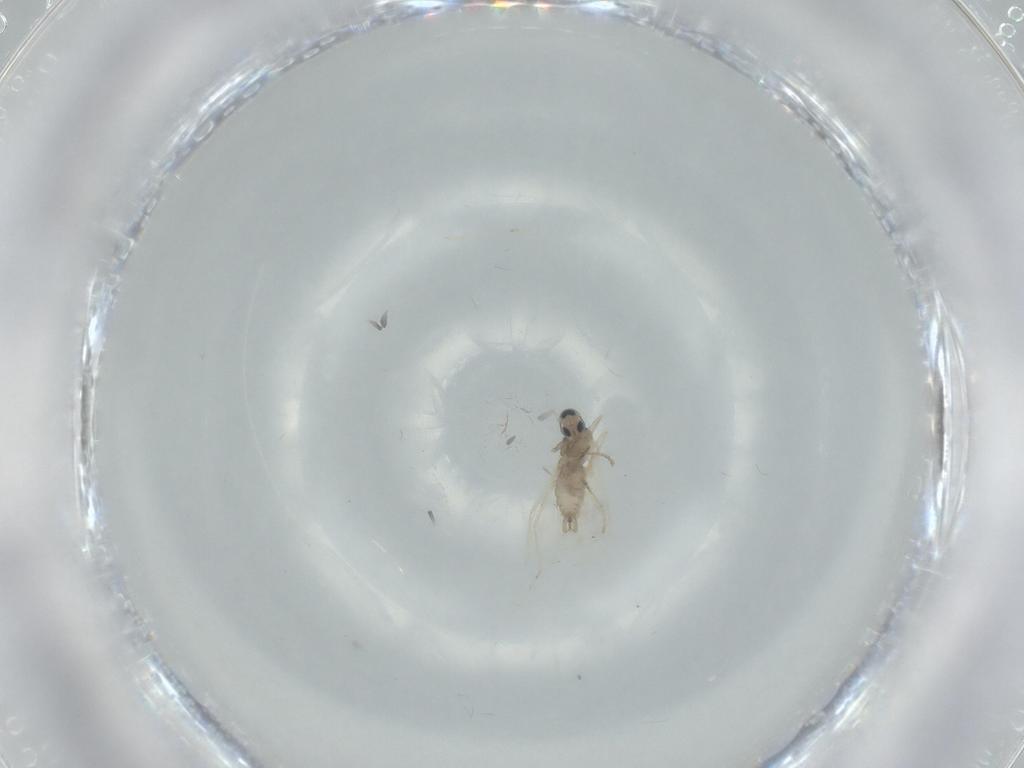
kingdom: Animalia
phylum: Arthropoda
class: Insecta
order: Diptera
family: Cecidomyiidae
